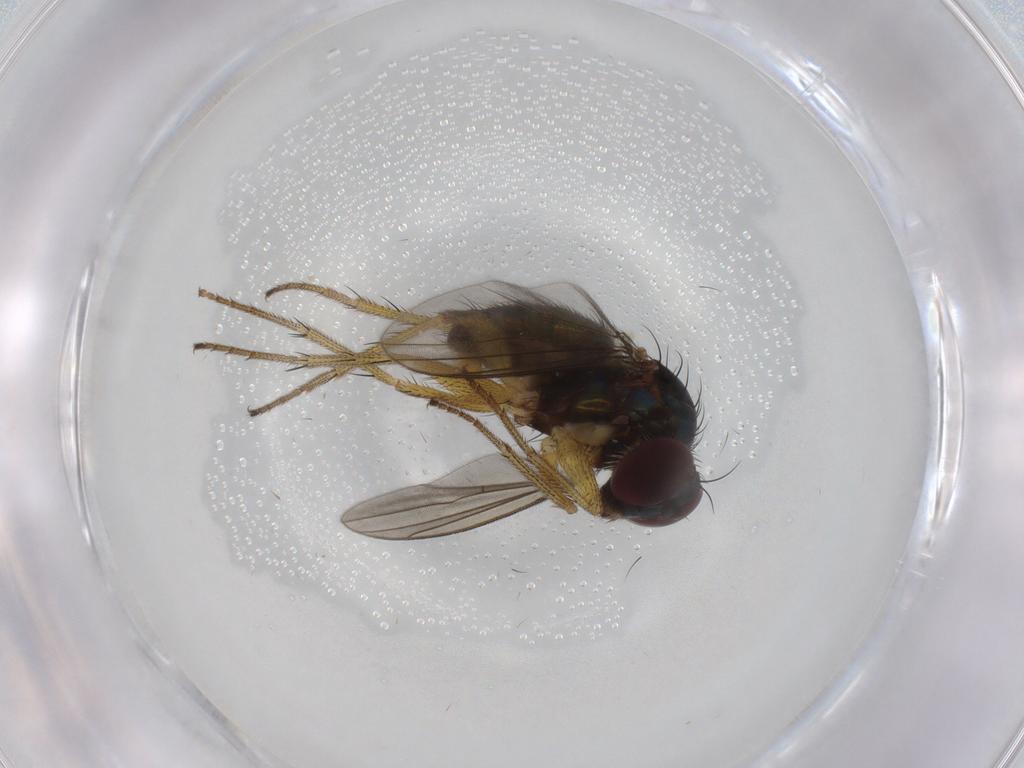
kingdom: Animalia
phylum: Arthropoda
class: Insecta
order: Diptera
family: Dolichopodidae
